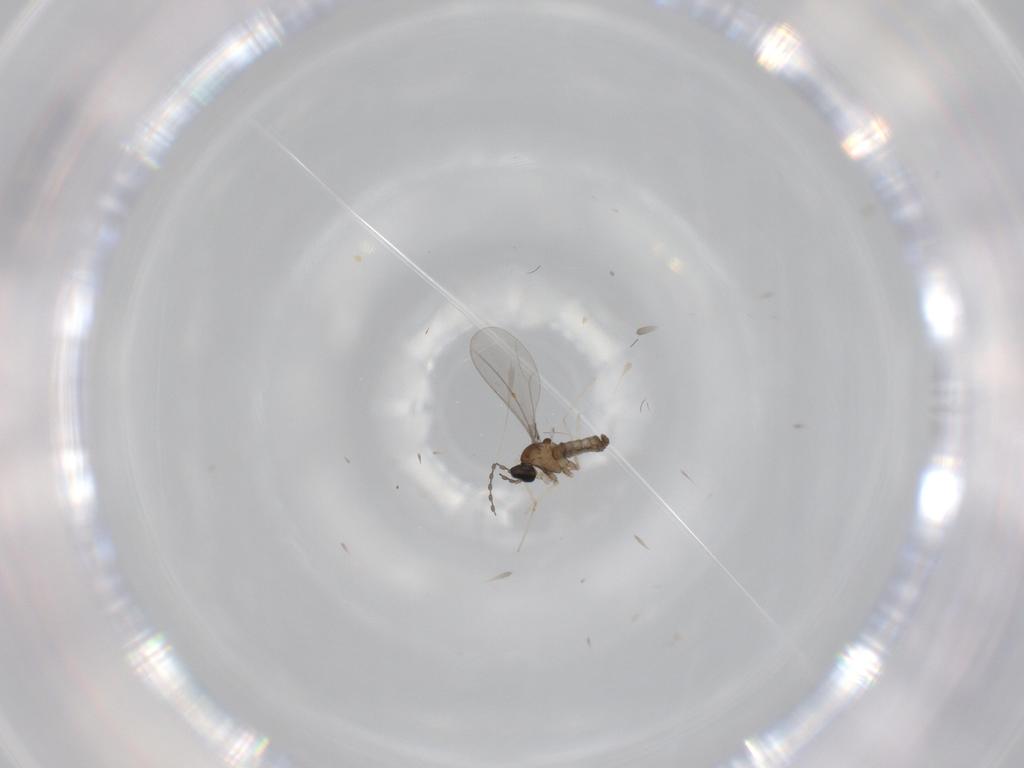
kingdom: Animalia
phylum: Arthropoda
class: Insecta
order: Diptera
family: Cecidomyiidae
